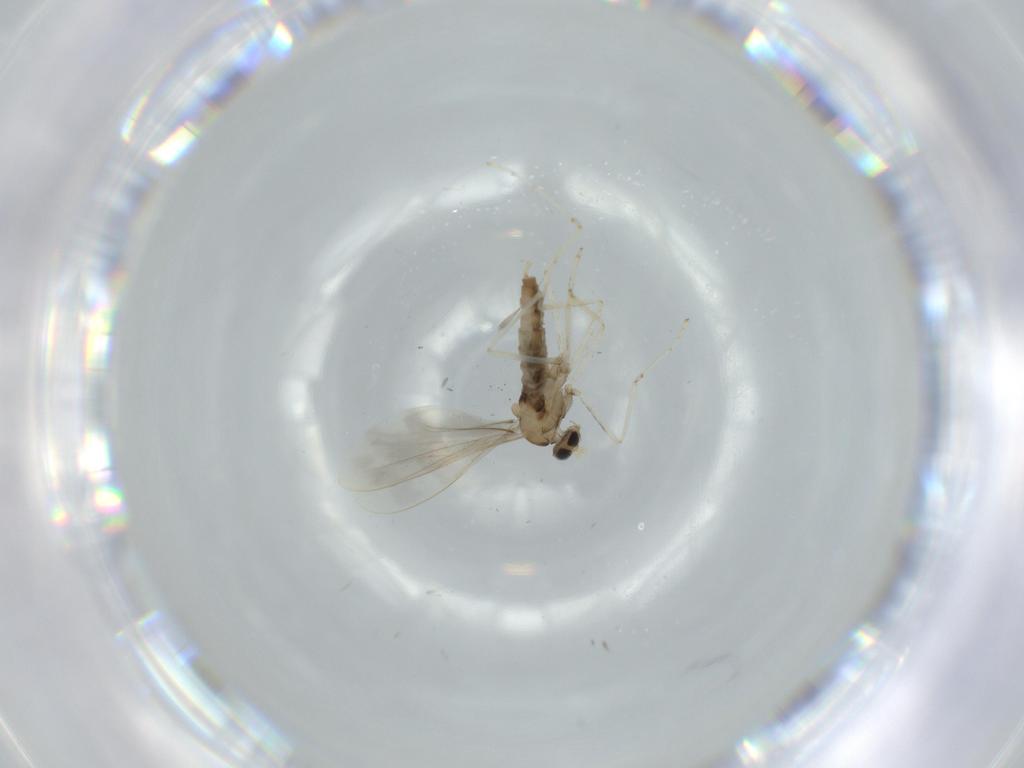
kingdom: Animalia
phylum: Arthropoda
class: Insecta
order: Diptera
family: Cecidomyiidae
